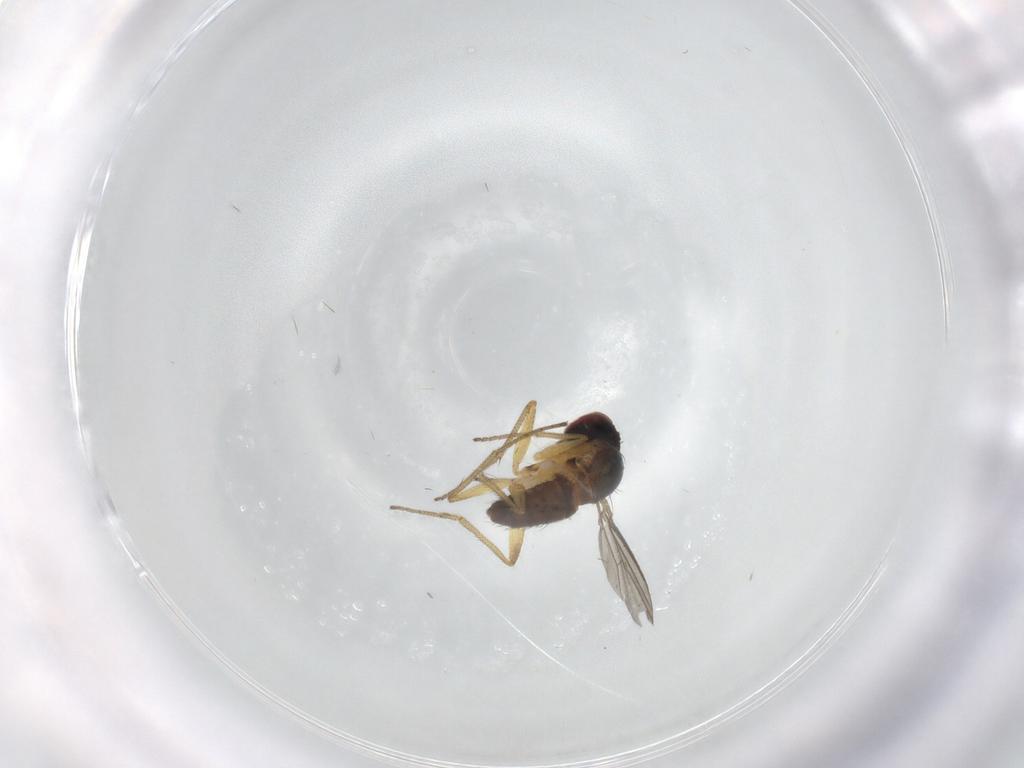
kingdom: Animalia
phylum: Arthropoda
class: Insecta
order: Diptera
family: Dolichopodidae
